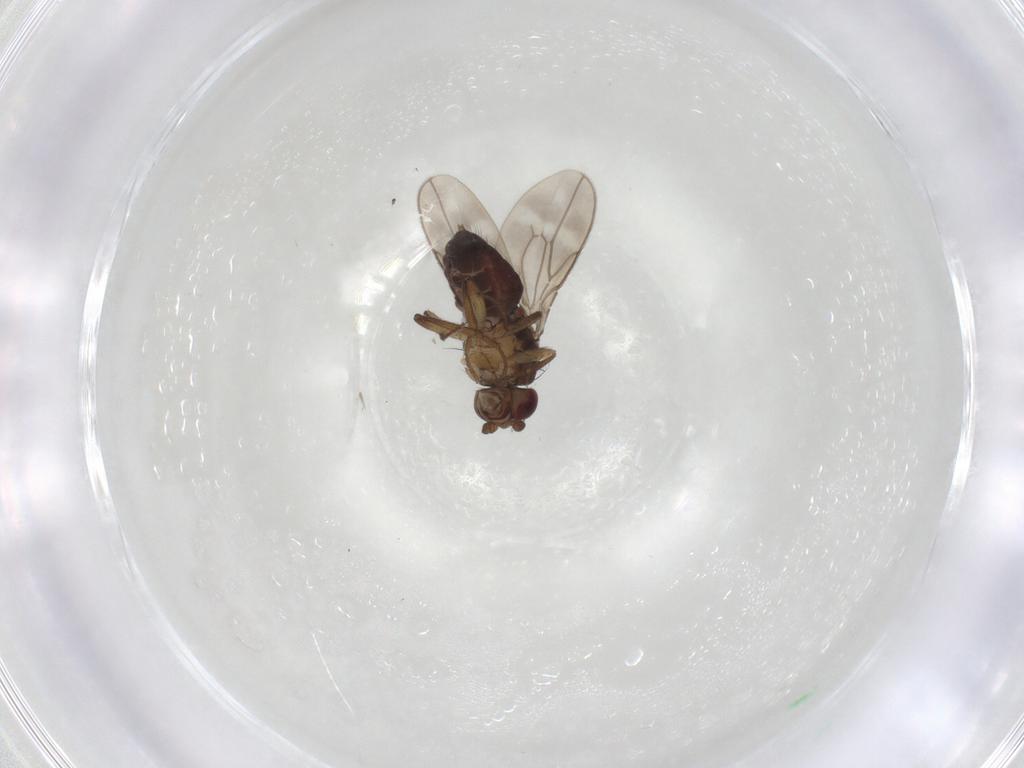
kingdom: Animalia
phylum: Arthropoda
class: Insecta
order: Diptera
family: Sphaeroceridae
